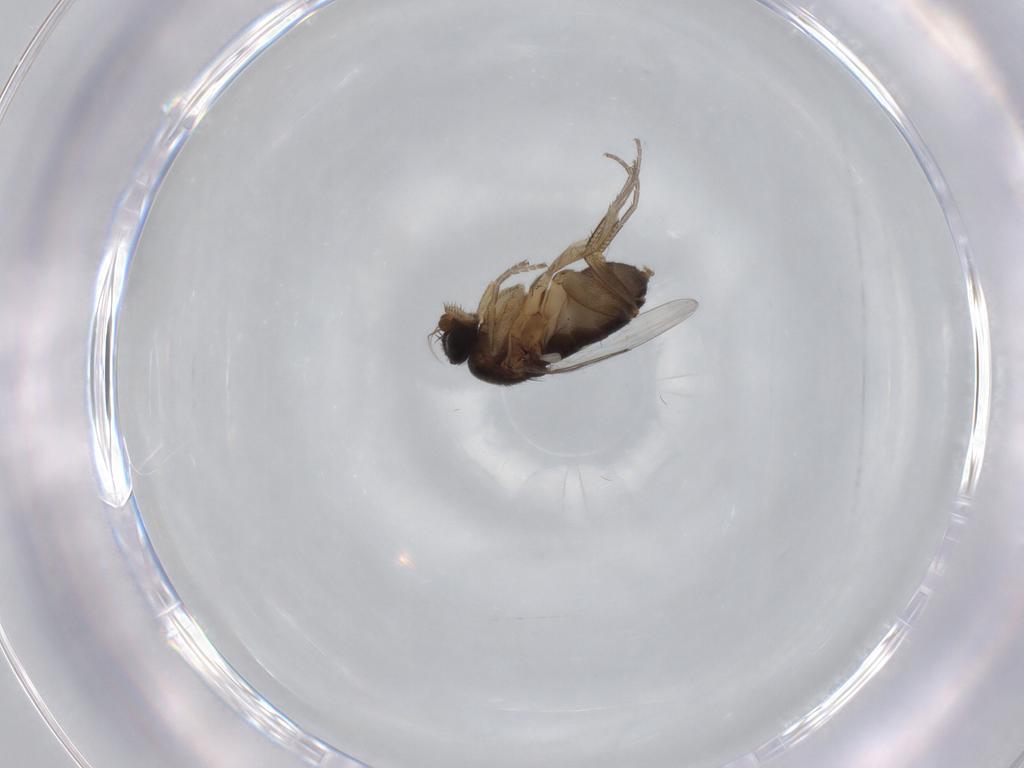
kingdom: Animalia
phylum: Arthropoda
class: Insecta
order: Diptera
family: Phoridae
